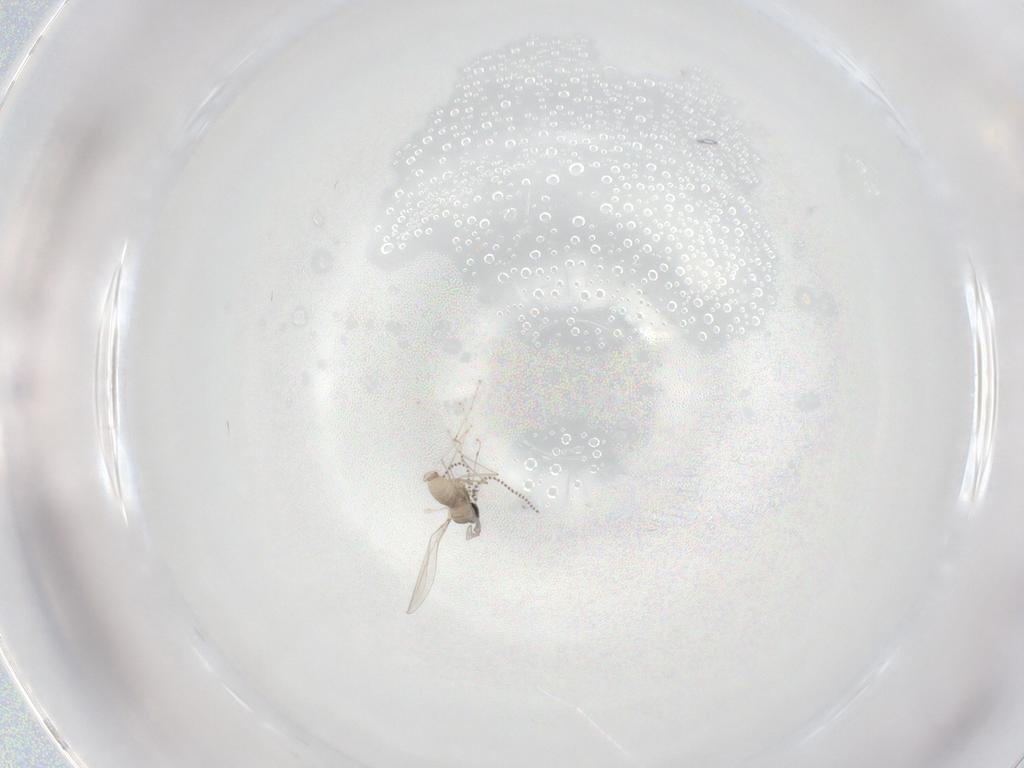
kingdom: Animalia
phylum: Arthropoda
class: Insecta
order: Diptera
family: Cecidomyiidae
